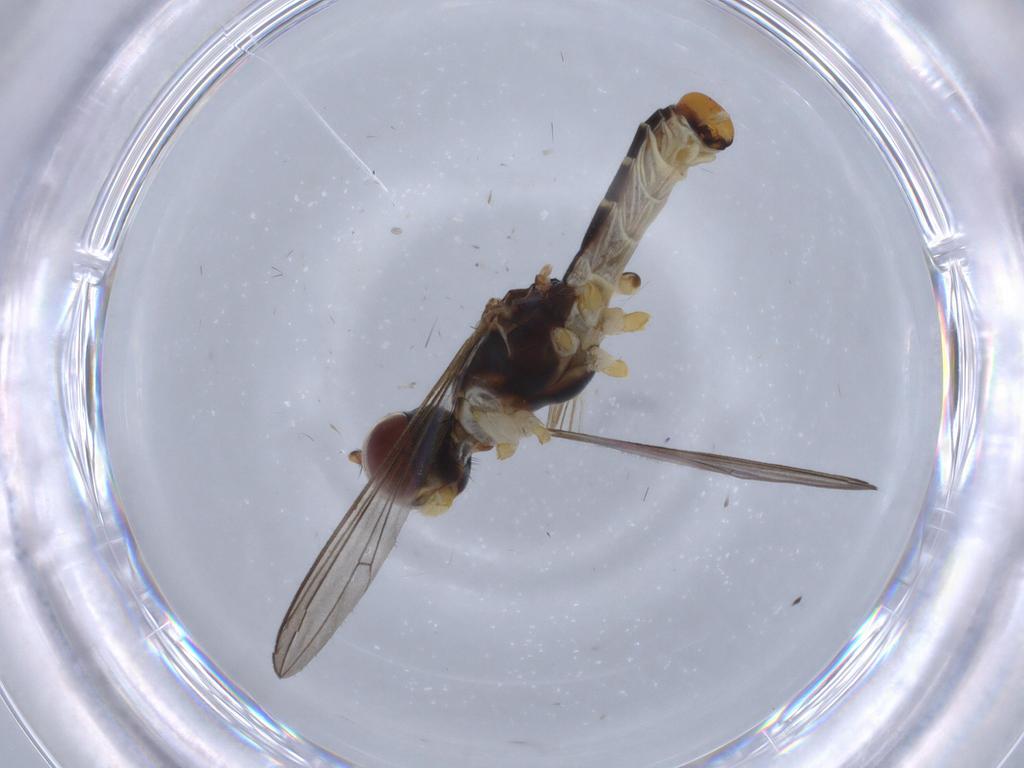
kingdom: Animalia
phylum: Arthropoda
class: Insecta
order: Diptera
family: Micropezidae
